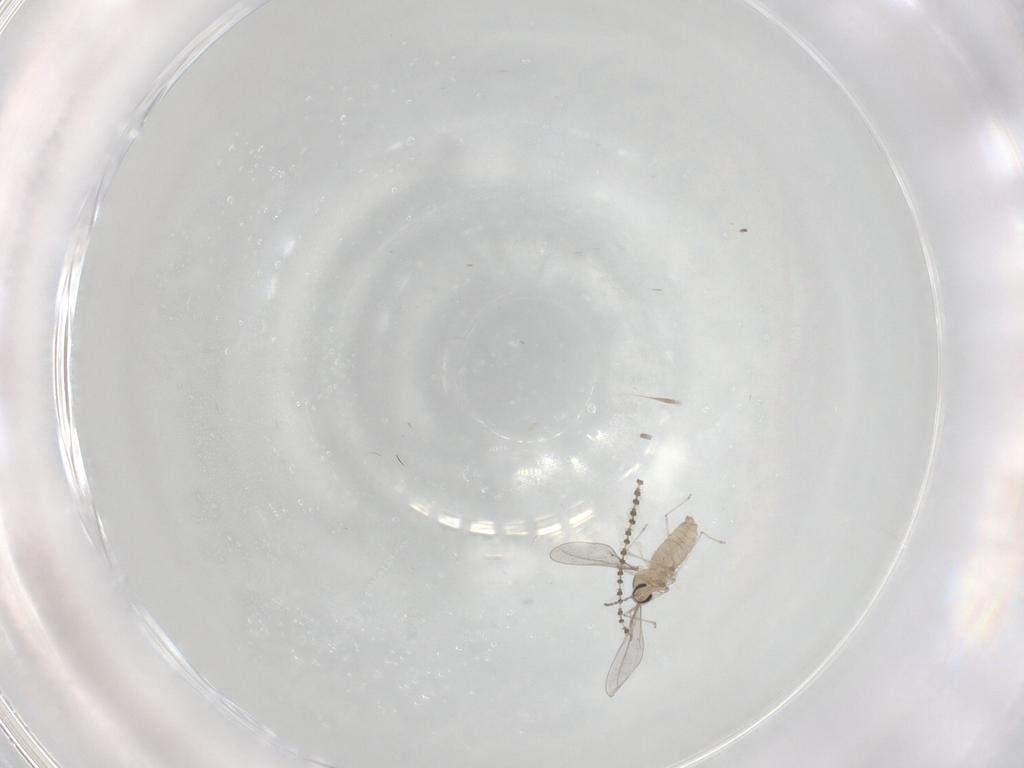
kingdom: Animalia
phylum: Arthropoda
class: Insecta
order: Diptera
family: Cecidomyiidae
